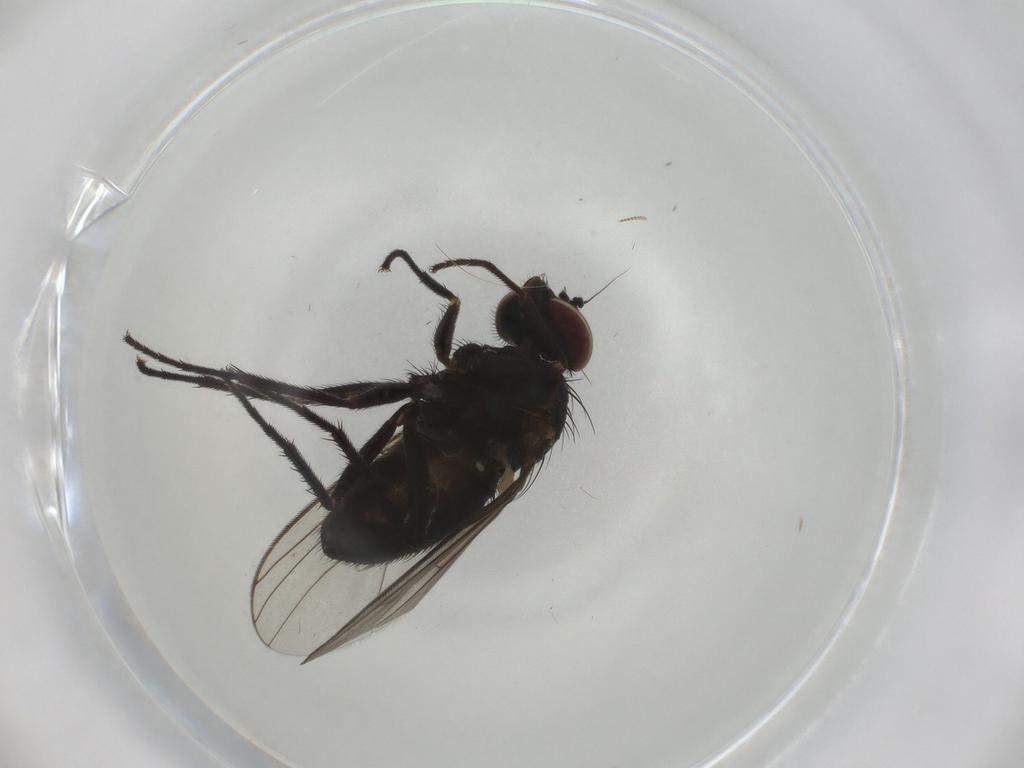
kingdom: Animalia
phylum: Arthropoda
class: Insecta
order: Diptera
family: Dolichopodidae
